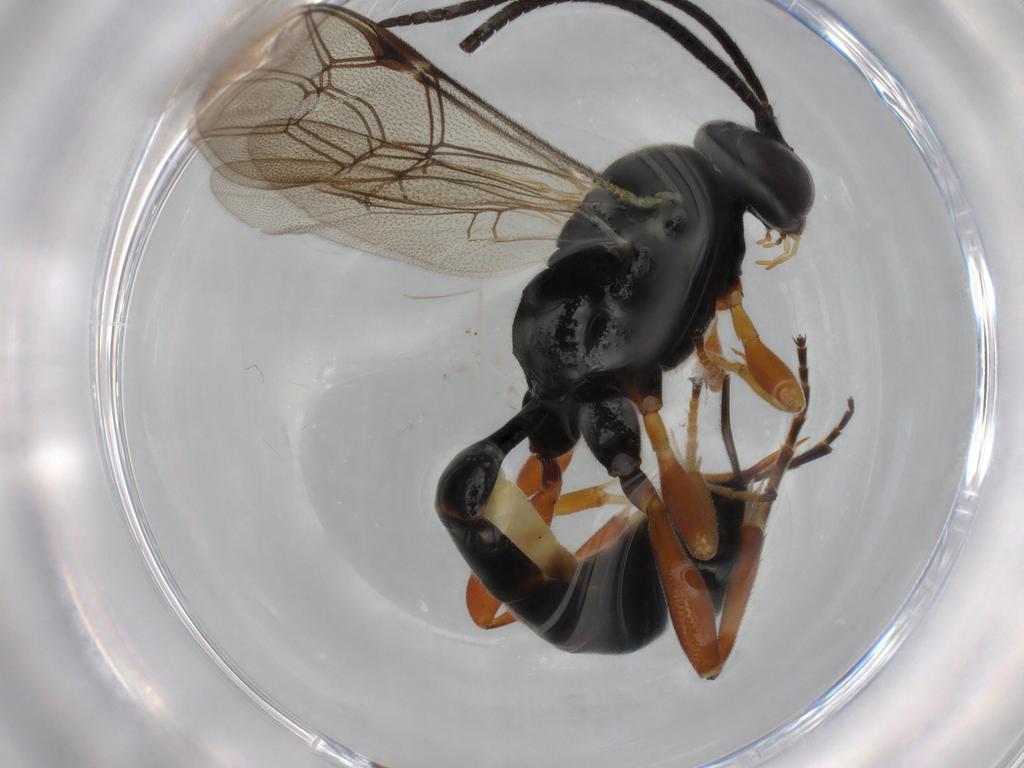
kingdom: Animalia
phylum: Arthropoda
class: Insecta
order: Hymenoptera
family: Ichneumonidae
